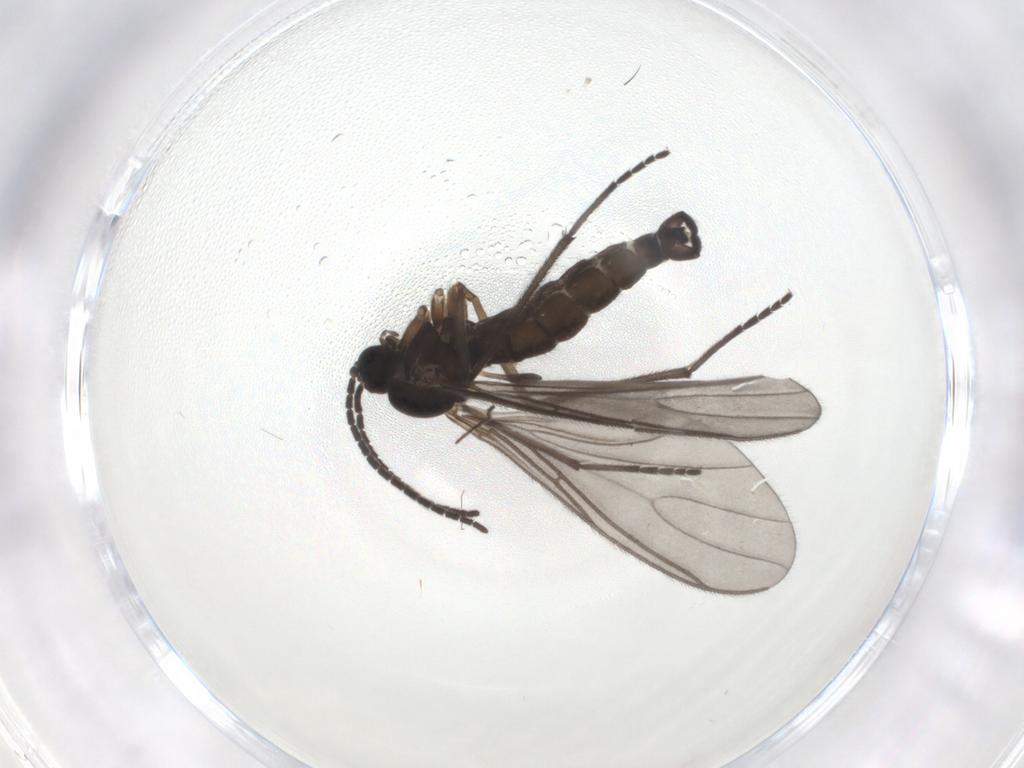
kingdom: Animalia
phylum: Arthropoda
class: Insecta
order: Diptera
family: Sciaridae
